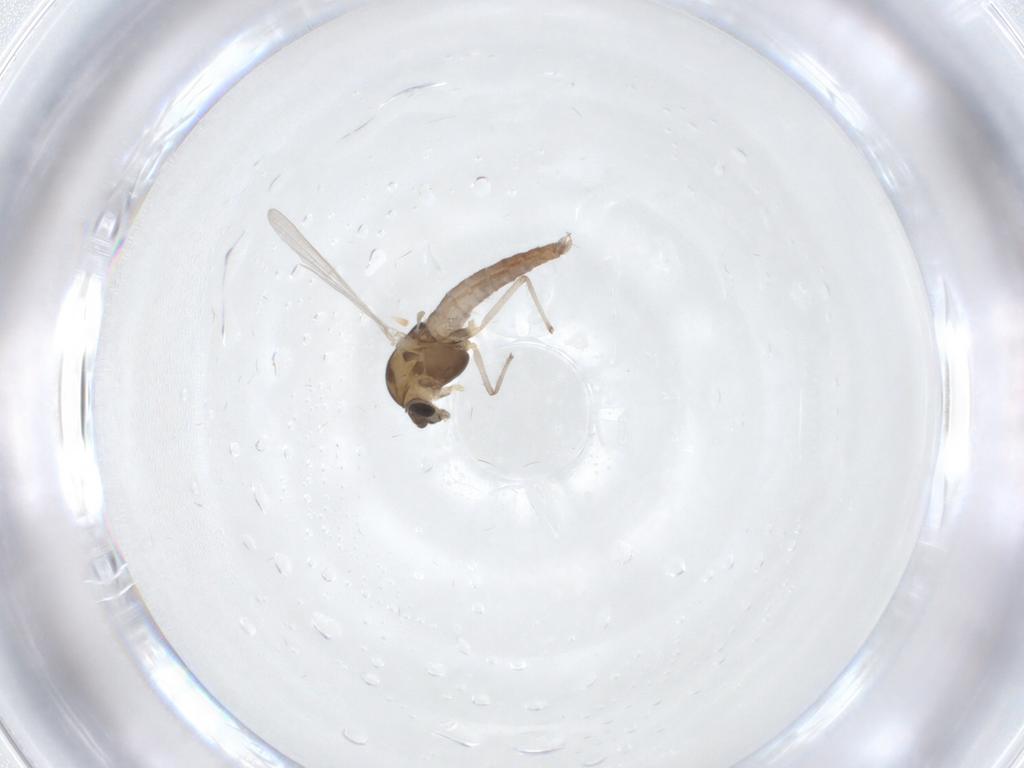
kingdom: Animalia
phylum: Arthropoda
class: Insecta
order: Diptera
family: Chironomidae
